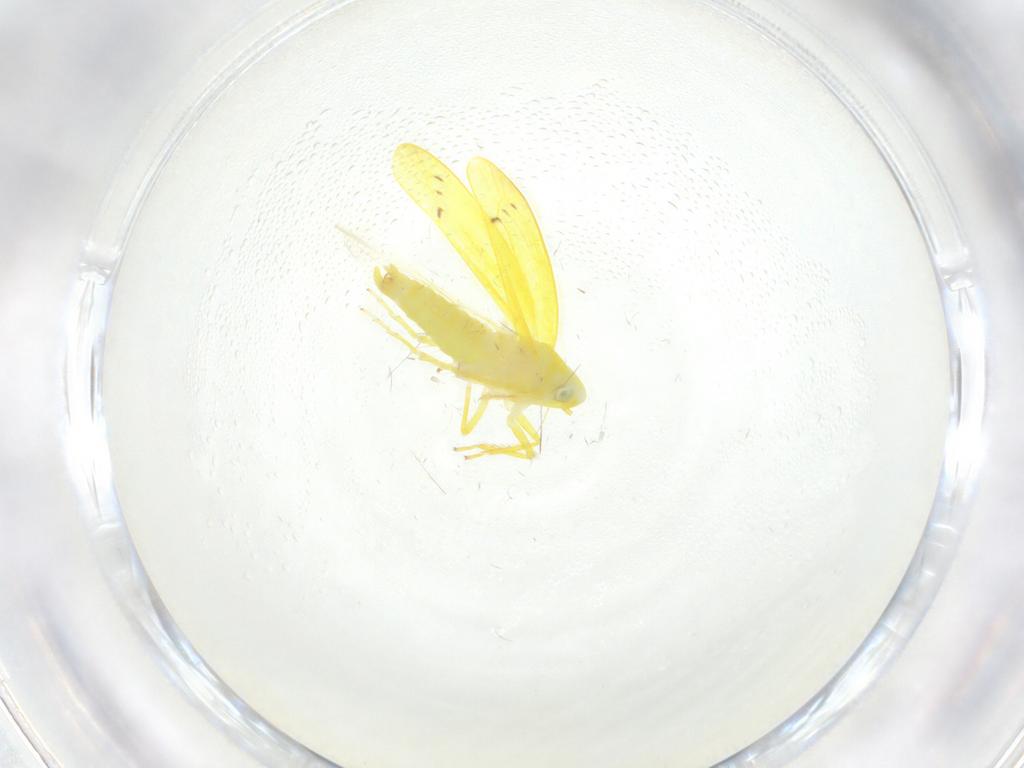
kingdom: Animalia
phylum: Arthropoda
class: Insecta
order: Hemiptera
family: Cicadellidae
